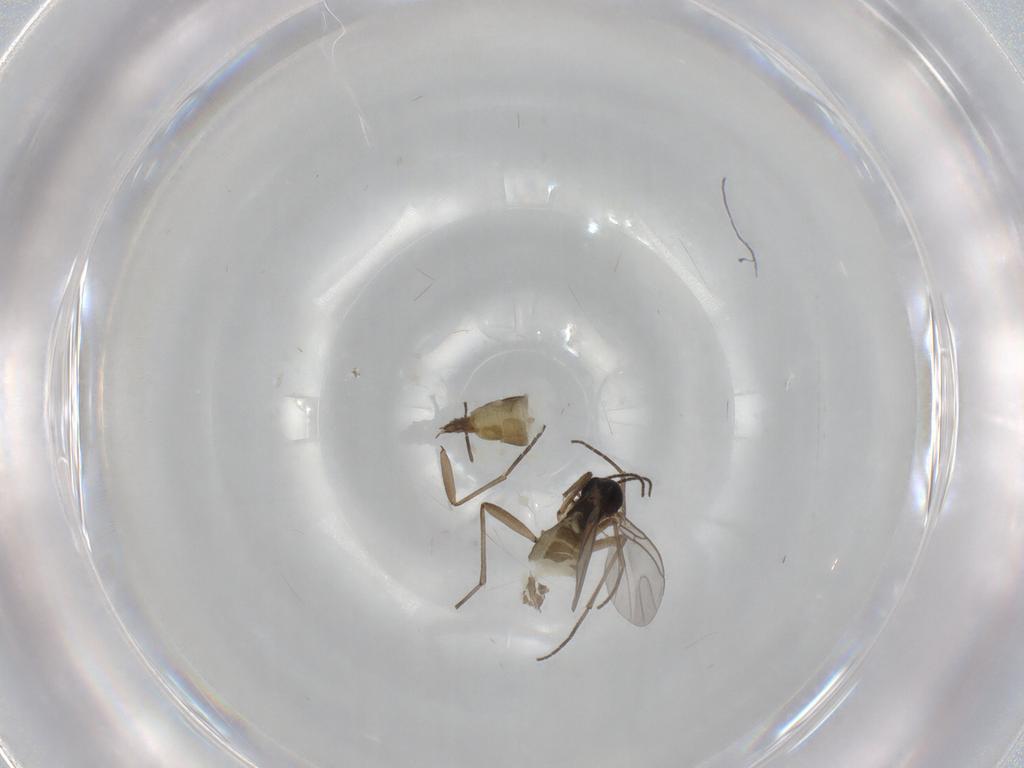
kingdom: Animalia
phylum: Arthropoda
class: Insecta
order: Diptera
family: Sciaridae
